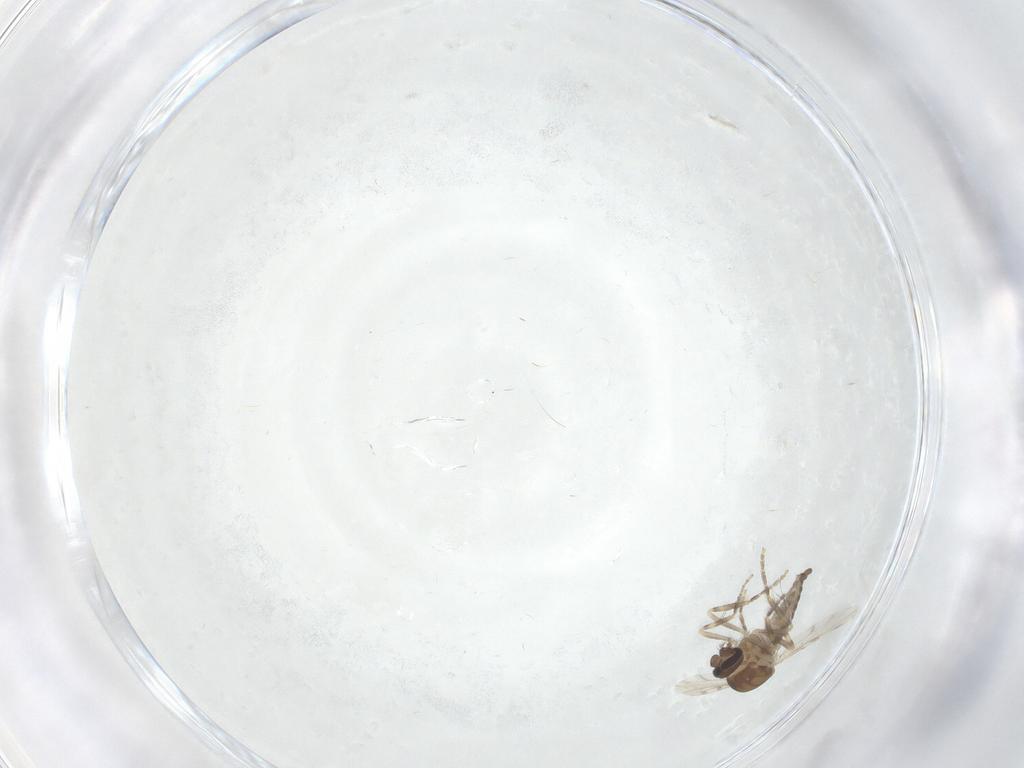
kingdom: Animalia
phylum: Arthropoda
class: Insecta
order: Diptera
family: Ceratopogonidae
